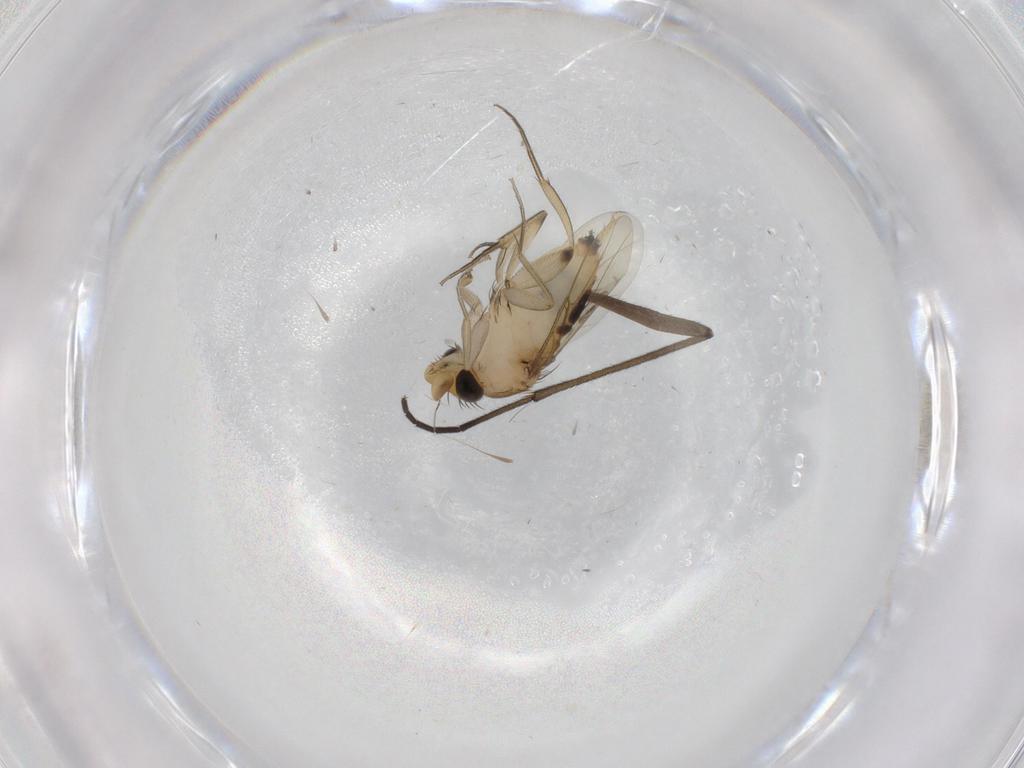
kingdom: Animalia
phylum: Arthropoda
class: Insecta
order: Diptera
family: Phoridae
